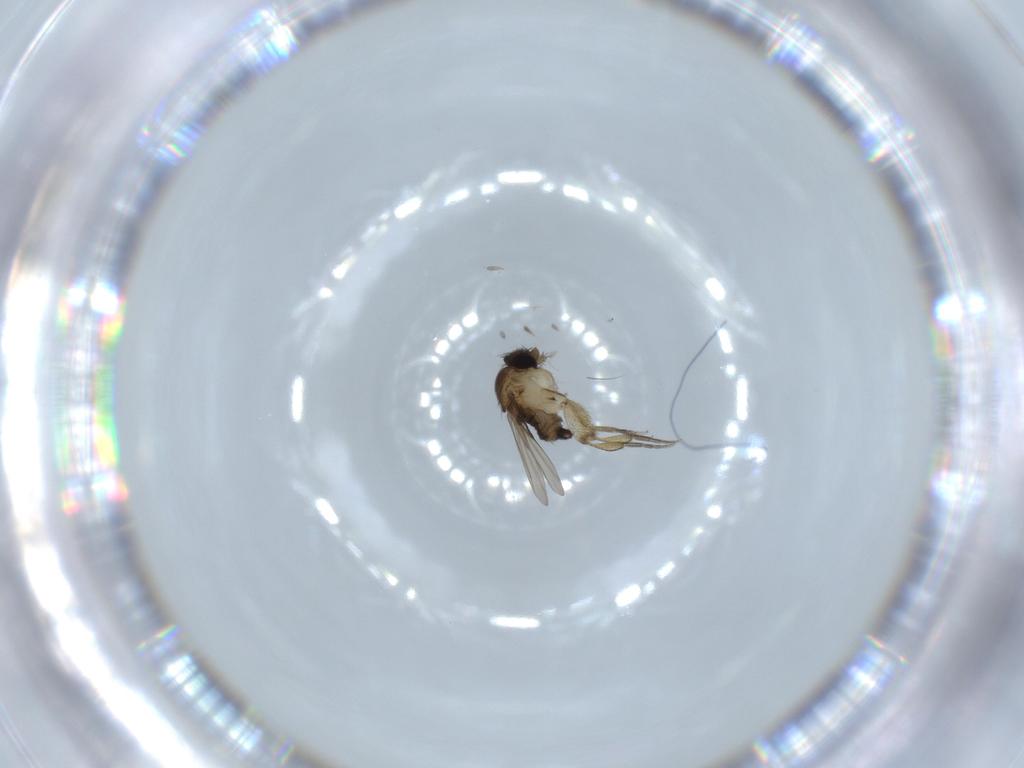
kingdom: Animalia
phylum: Arthropoda
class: Insecta
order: Diptera
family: Phoridae
